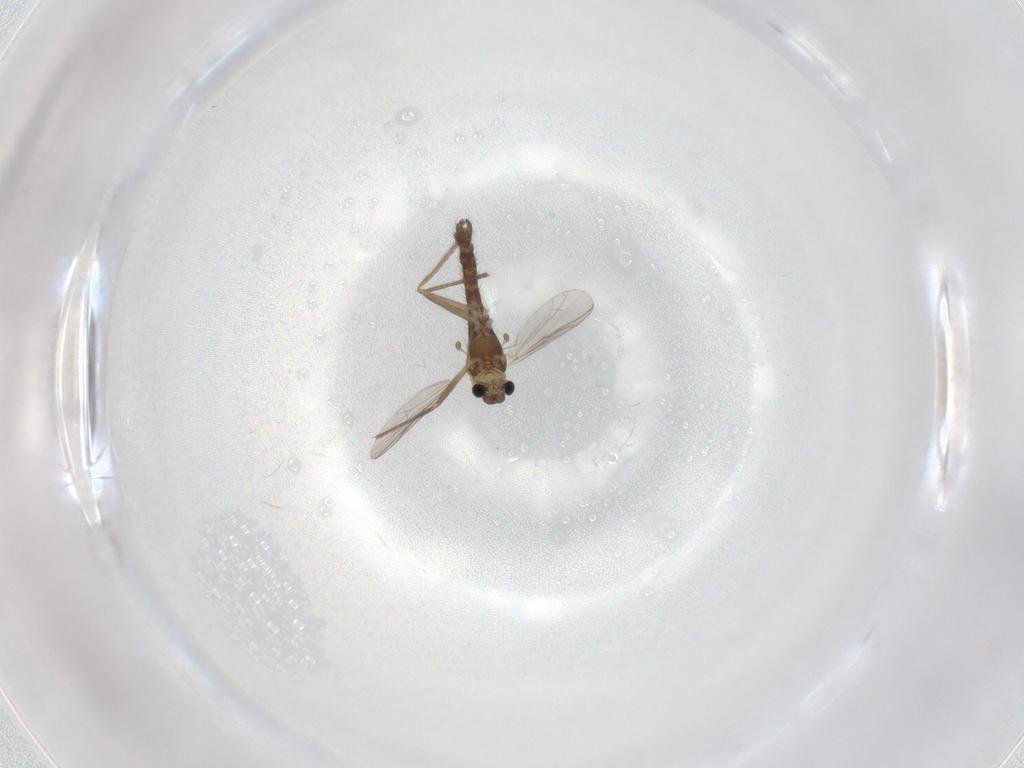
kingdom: Animalia
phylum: Arthropoda
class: Insecta
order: Diptera
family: Chironomidae
